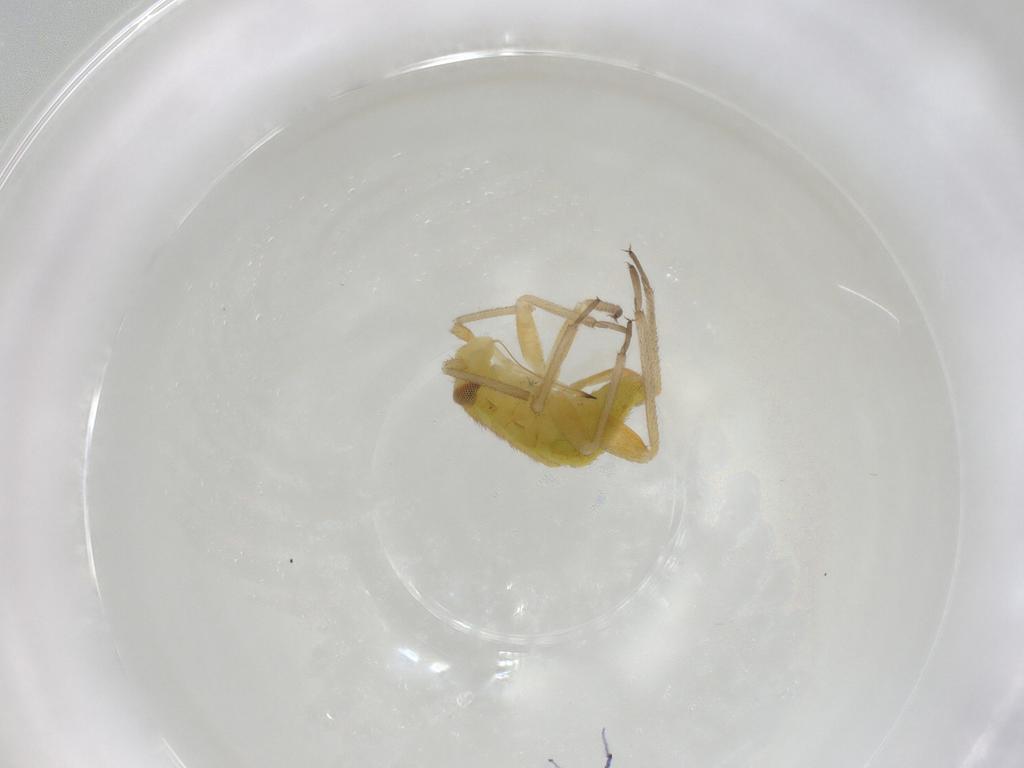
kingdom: Animalia
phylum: Arthropoda
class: Insecta
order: Hemiptera
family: Miridae
